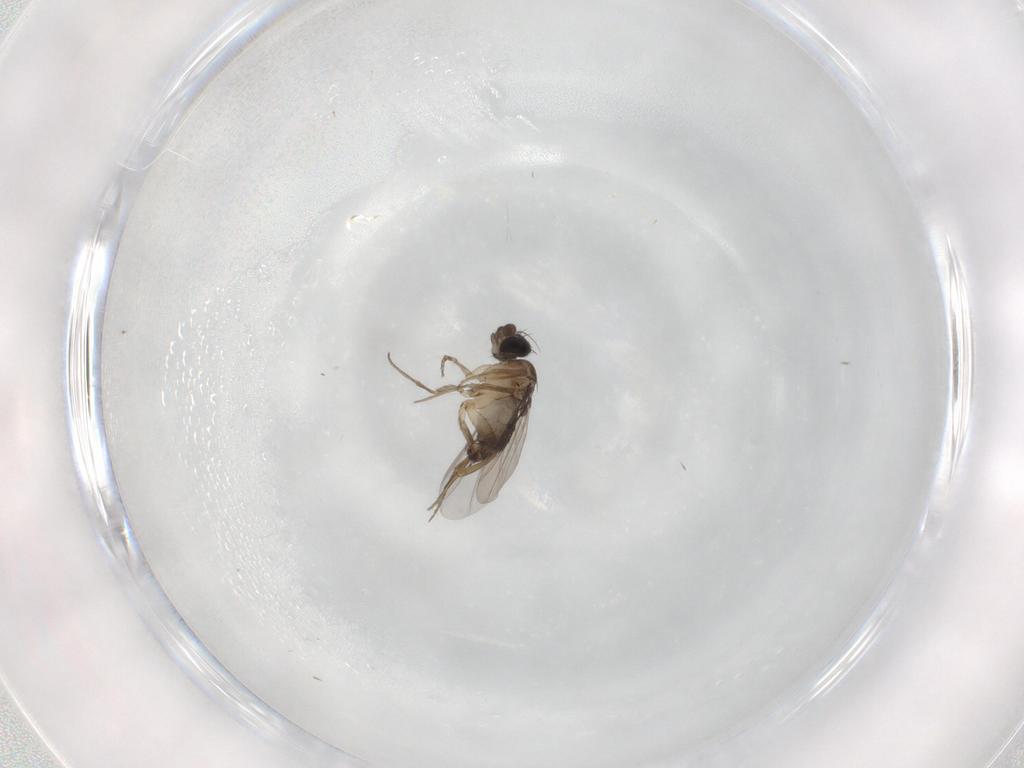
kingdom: Animalia
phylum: Arthropoda
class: Insecta
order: Diptera
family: Phoridae
